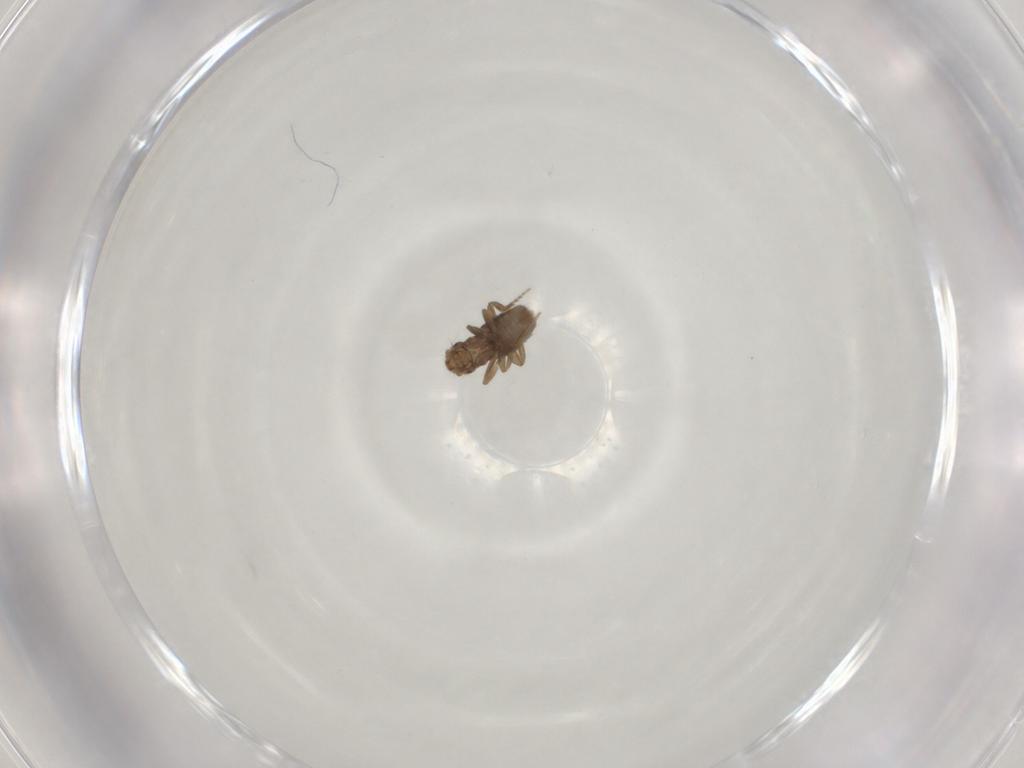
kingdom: Animalia
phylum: Arthropoda
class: Insecta
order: Diptera
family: Phoridae
